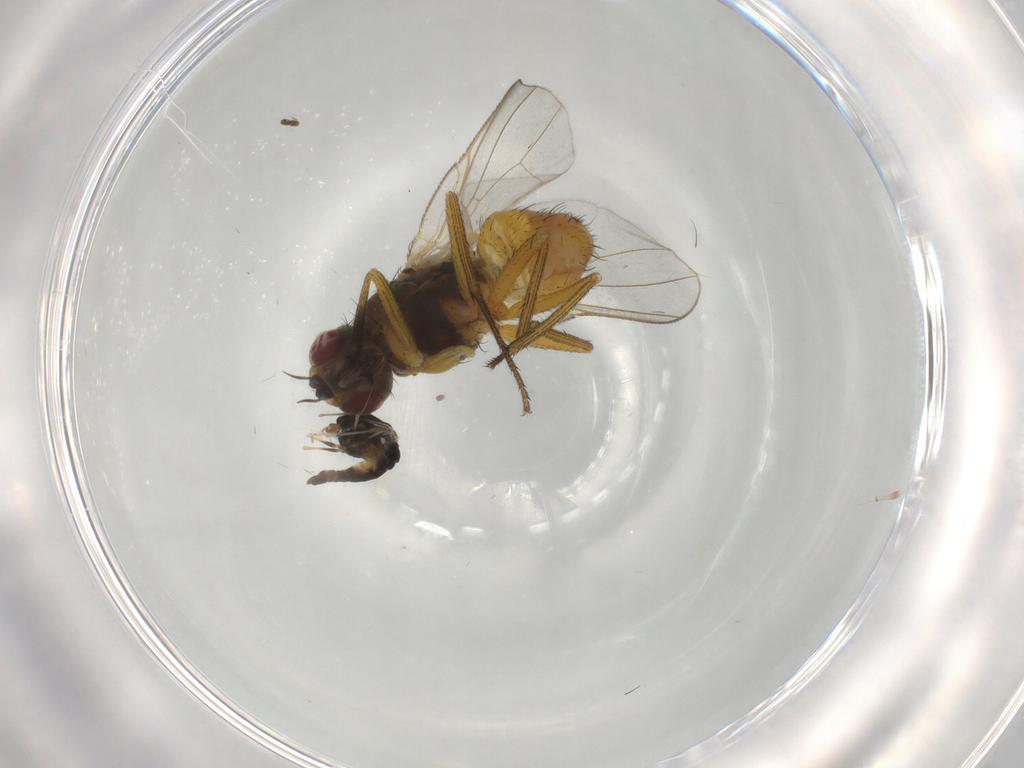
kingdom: Animalia
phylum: Arthropoda
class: Insecta
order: Diptera
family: Muscidae
